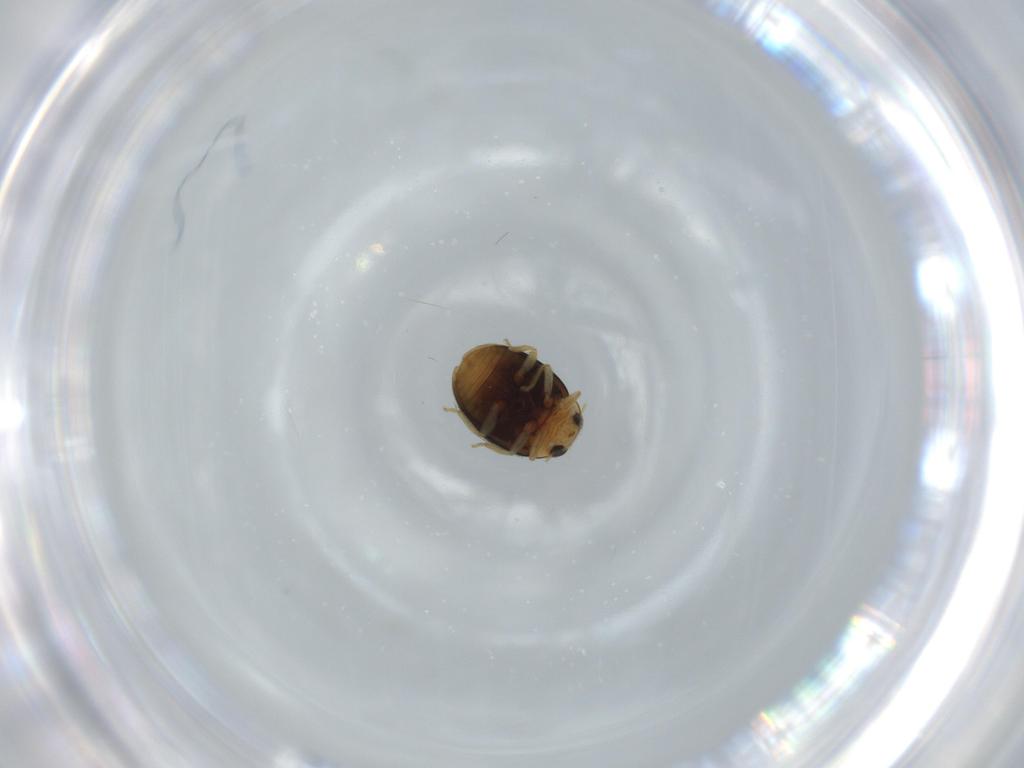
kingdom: Animalia
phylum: Arthropoda
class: Insecta
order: Coleoptera
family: Coccinellidae
